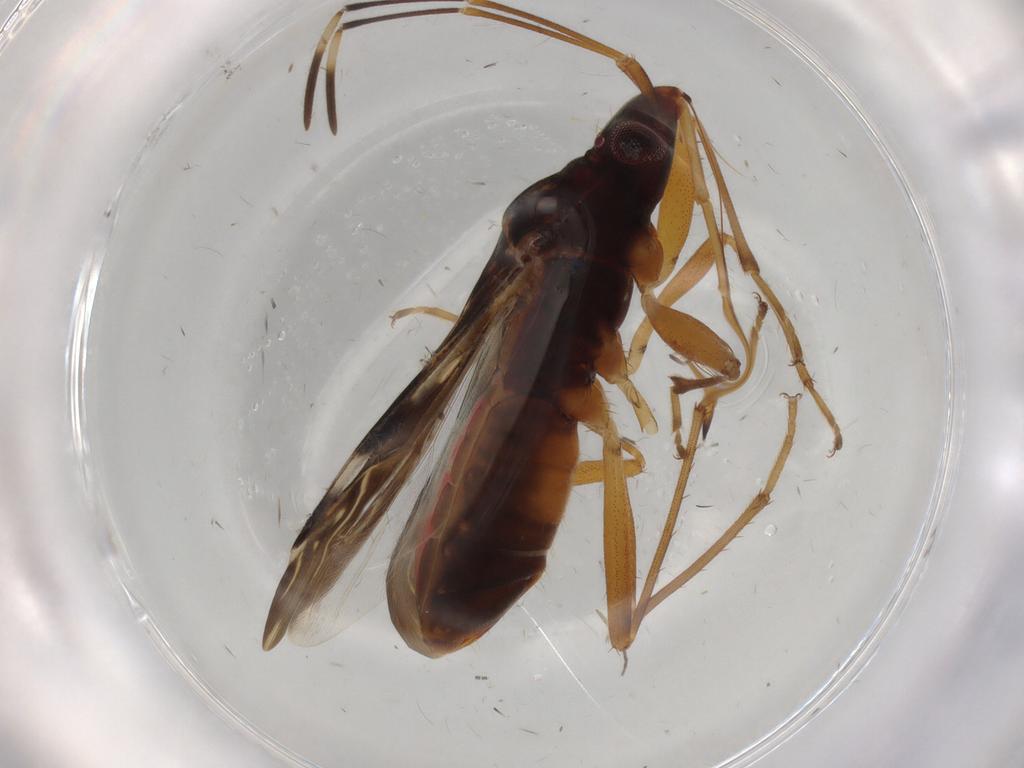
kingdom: Animalia
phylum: Arthropoda
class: Insecta
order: Hemiptera
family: Rhyparochromidae
